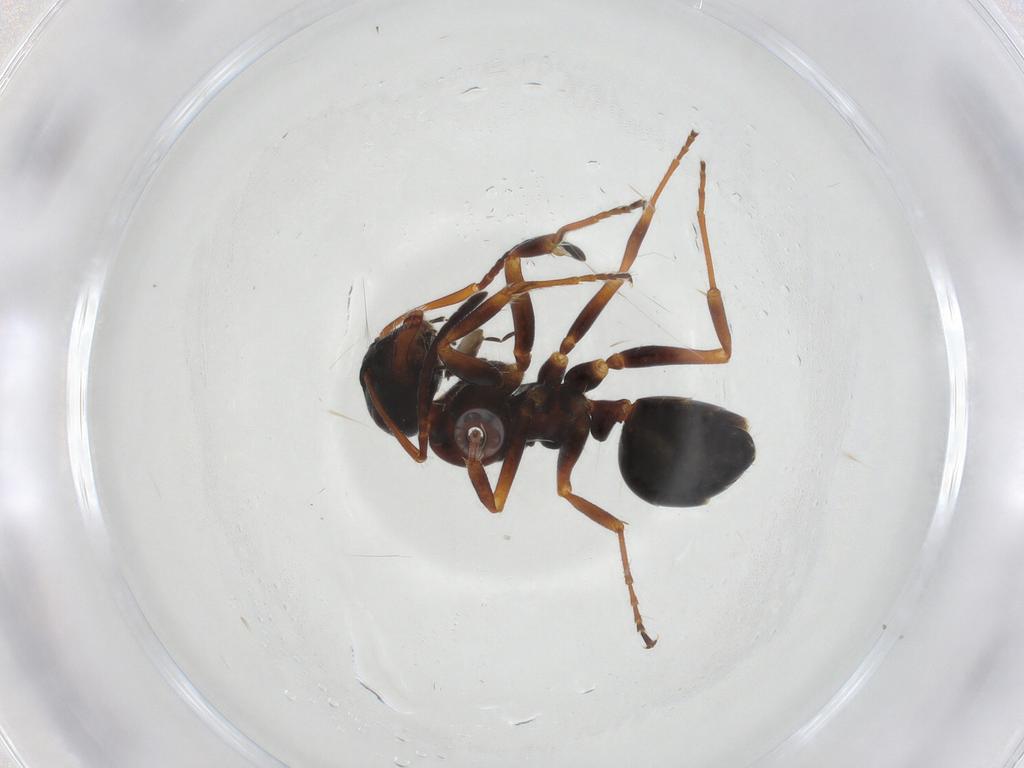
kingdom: Animalia
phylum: Arthropoda
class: Insecta
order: Hymenoptera
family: Formicidae
